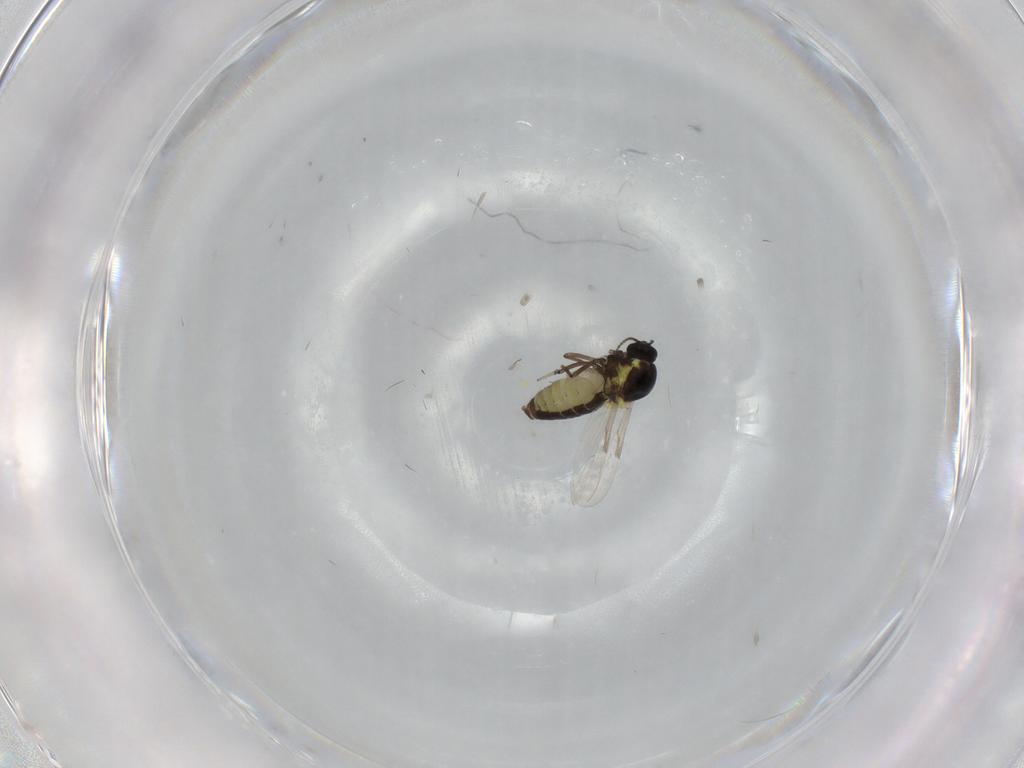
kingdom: Animalia
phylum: Arthropoda
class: Insecta
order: Diptera
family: Ceratopogonidae
